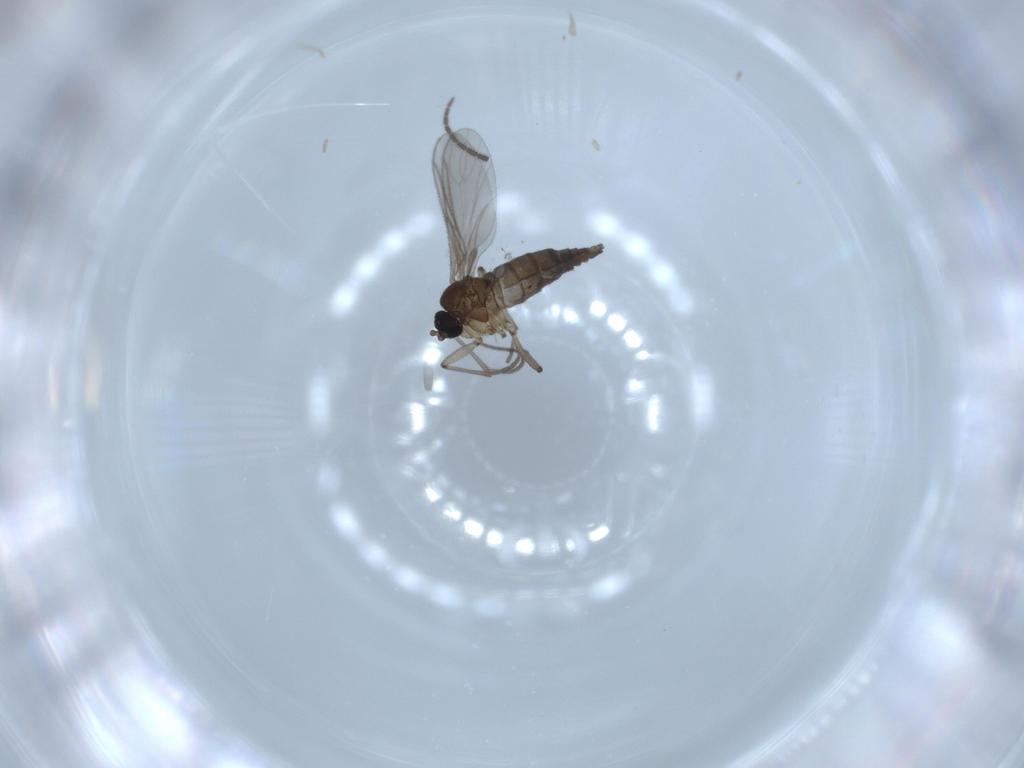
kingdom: Animalia
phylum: Arthropoda
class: Insecta
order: Diptera
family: Sciaridae
